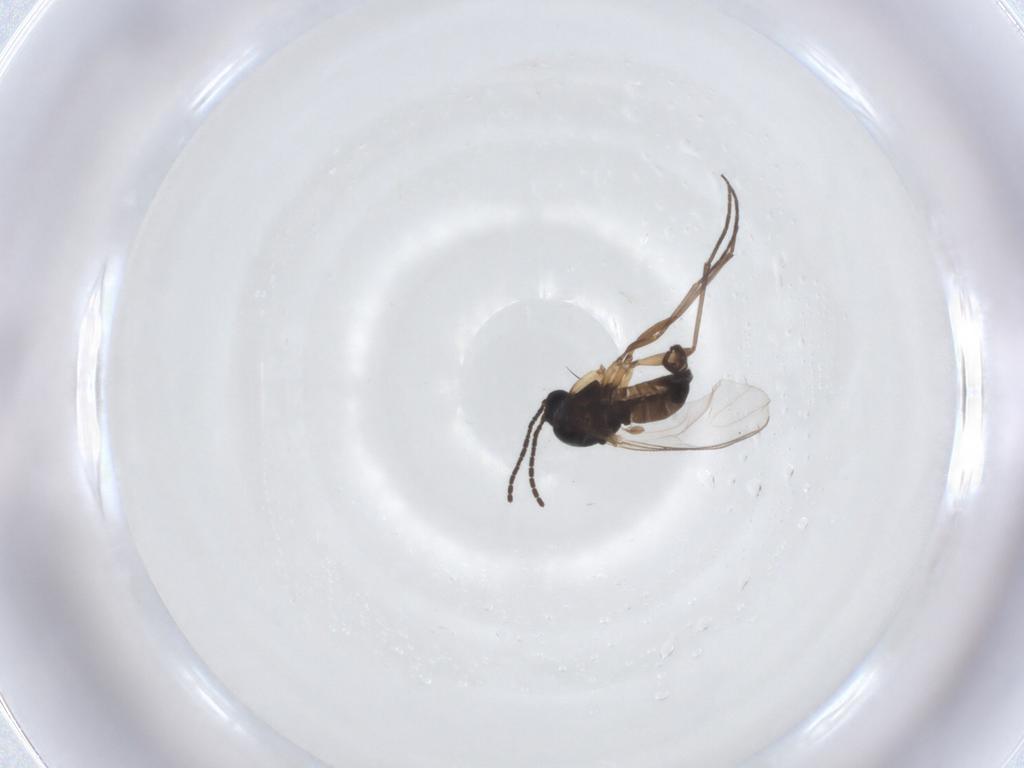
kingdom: Animalia
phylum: Arthropoda
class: Insecta
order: Diptera
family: Sciaridae
